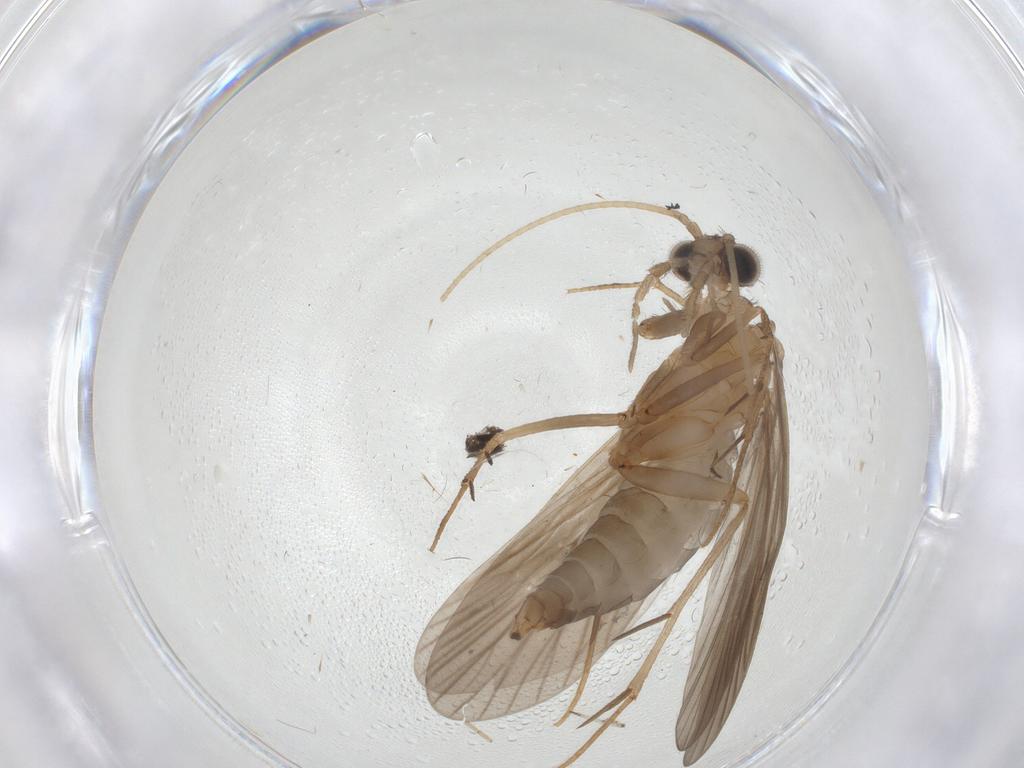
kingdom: Animalia
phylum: Arthropoda
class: Insecta
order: Trichoptera
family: Philopotamidae
